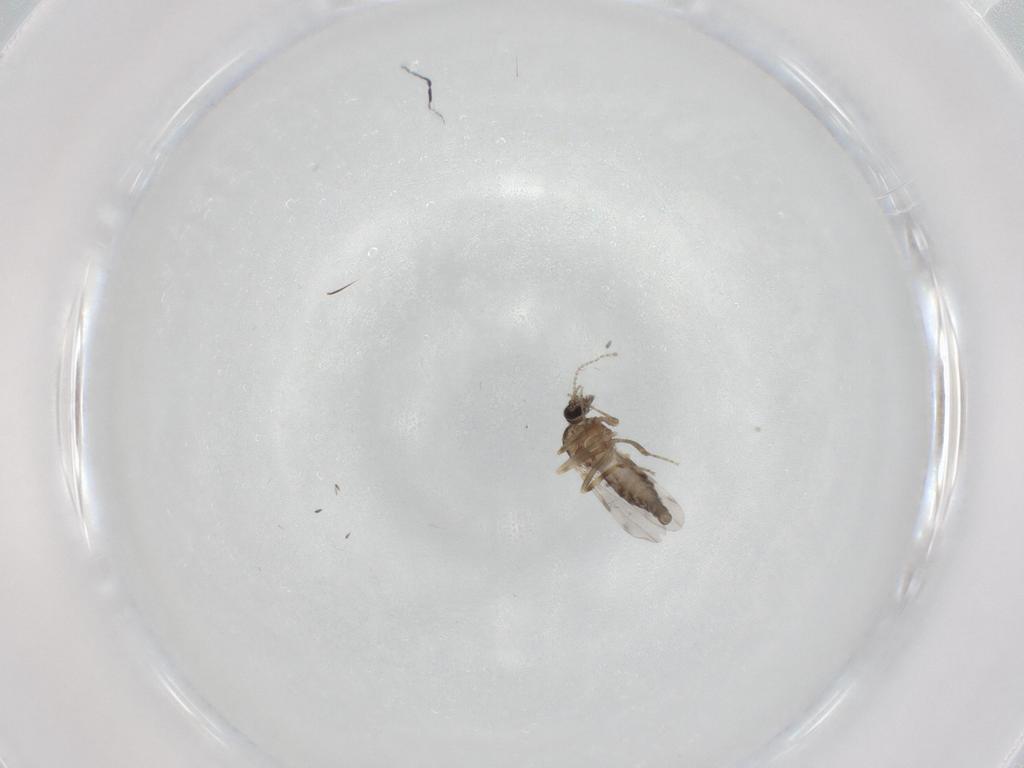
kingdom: Animalia
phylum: Arthropoda
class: Insecta
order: Diptera
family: Ceratopogonidae
